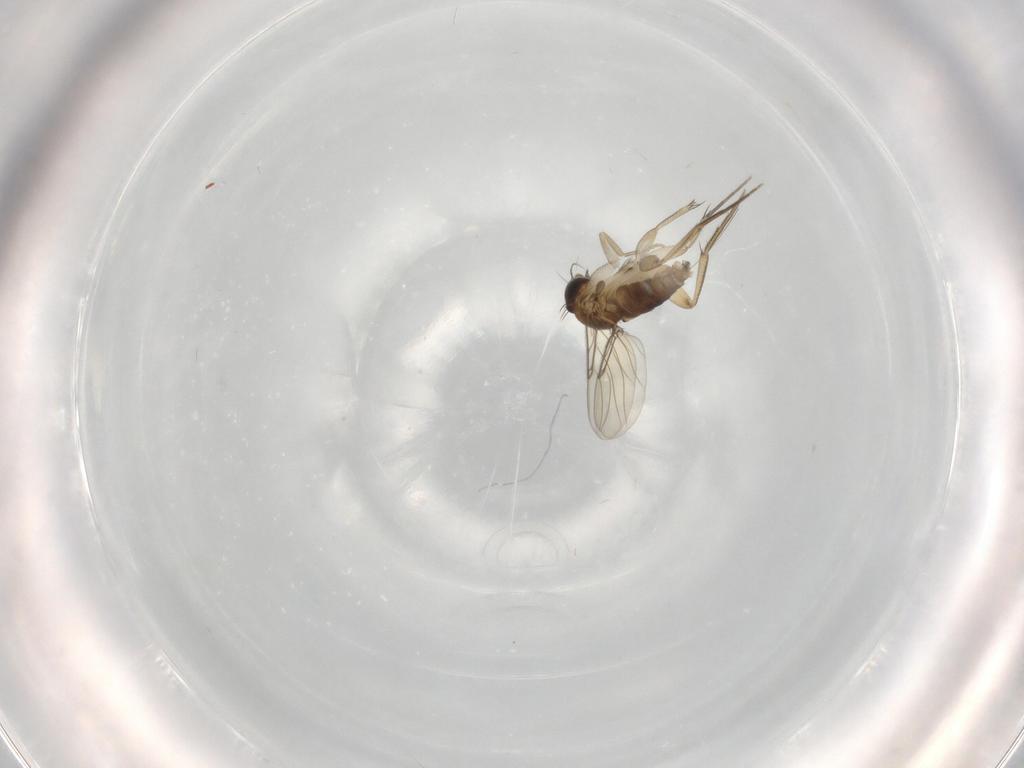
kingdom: Animalia
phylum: Arthropoda
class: Insecta
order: Diptera
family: Phoridae
